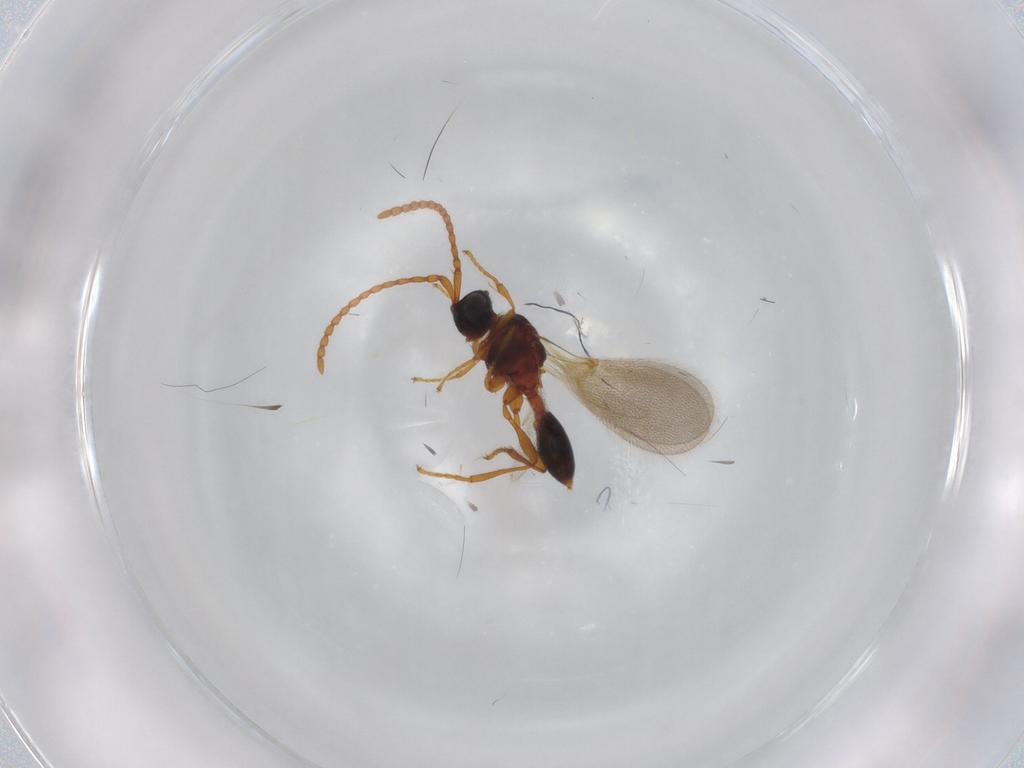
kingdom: Animalia
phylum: Arthropoda
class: Insecta
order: Hymenoptera
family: Diapriidae
